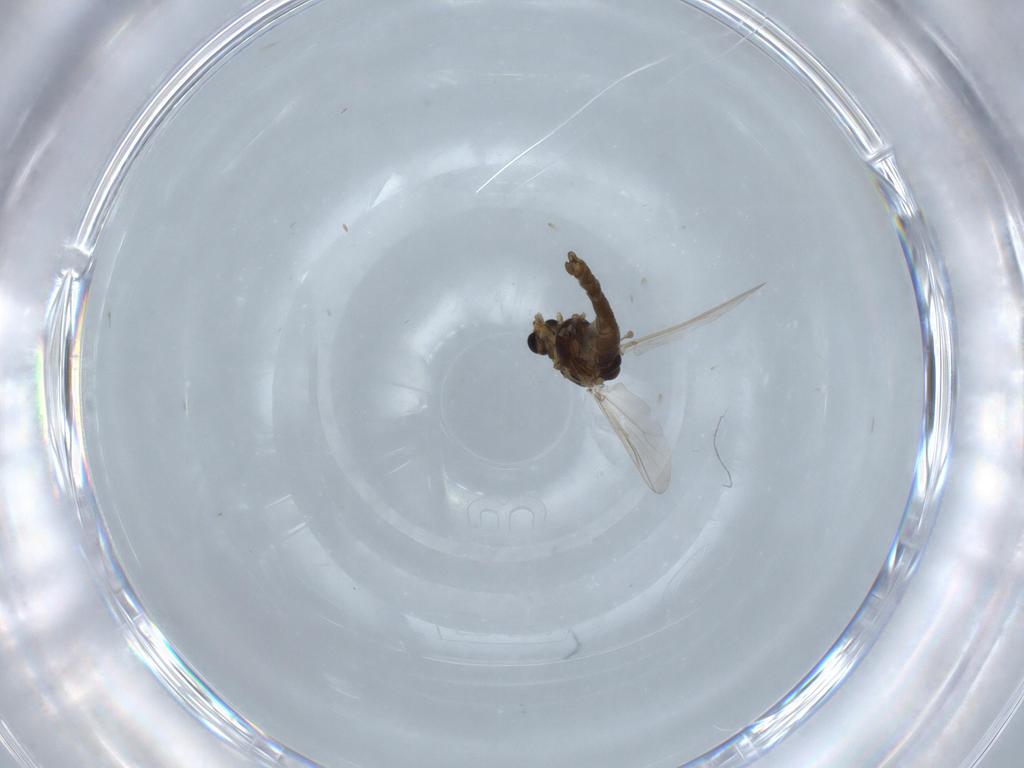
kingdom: Animalia
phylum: Arthropoda
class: Insecta
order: Diptera
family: Chironomidae
